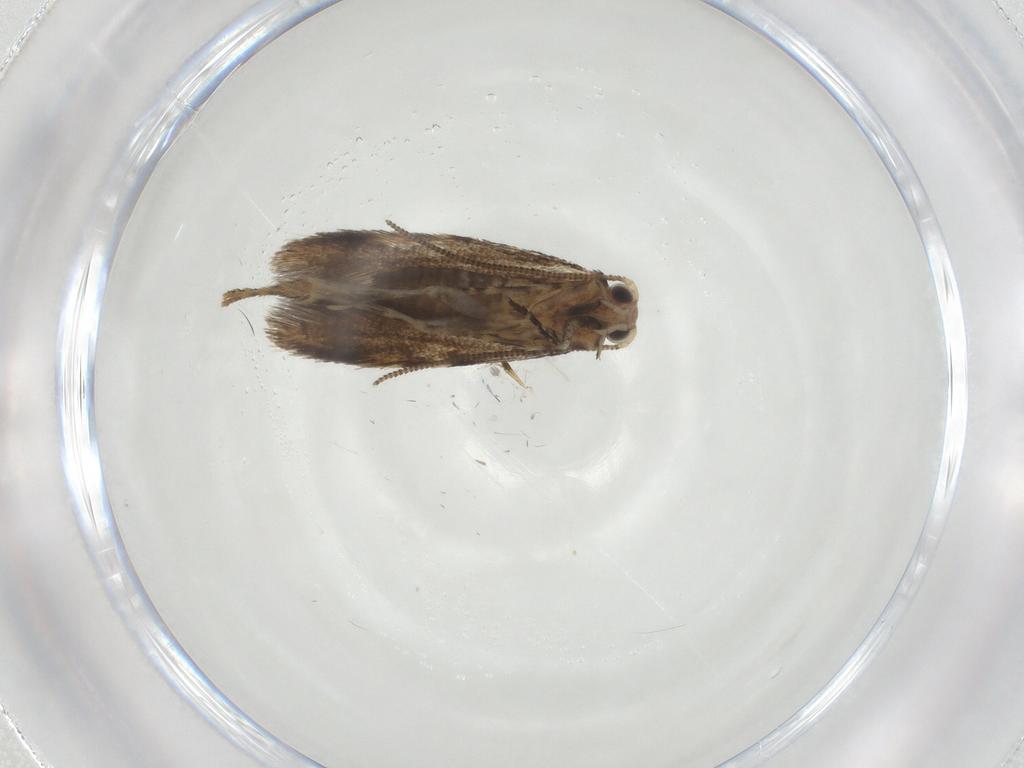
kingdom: Animalia
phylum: Arthropoda
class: Insecta
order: Lepidoptera
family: Tineidae
